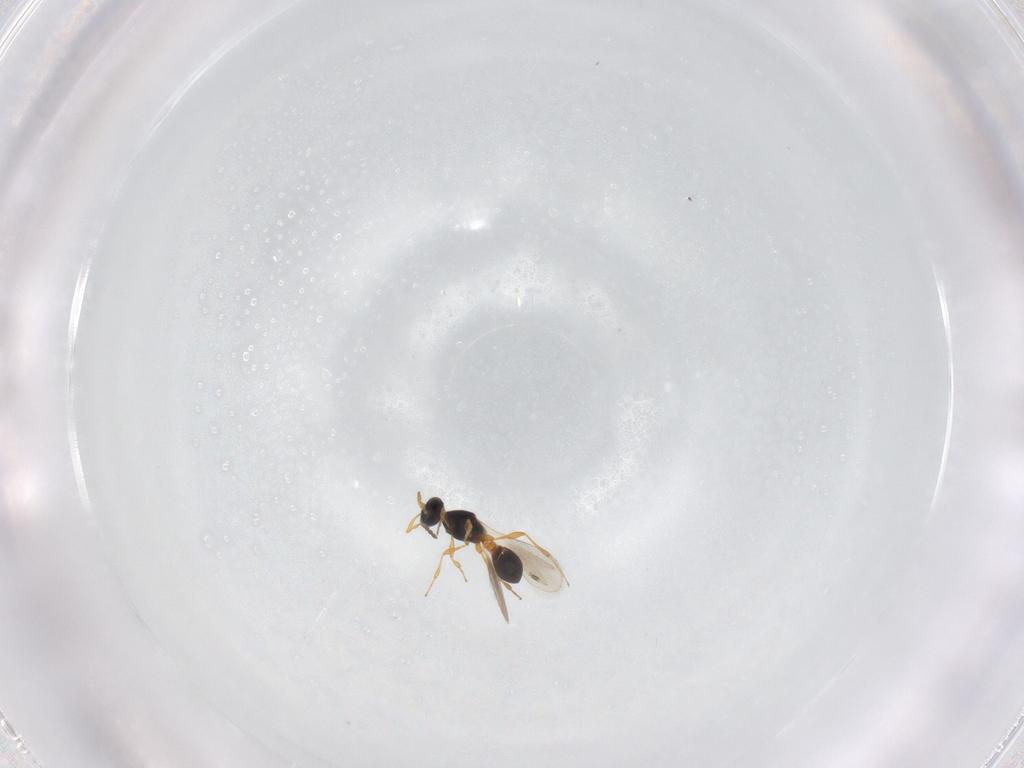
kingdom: Animalia
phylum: Arthropoda
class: Insecta
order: Hymenoptera
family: Platygastridae
